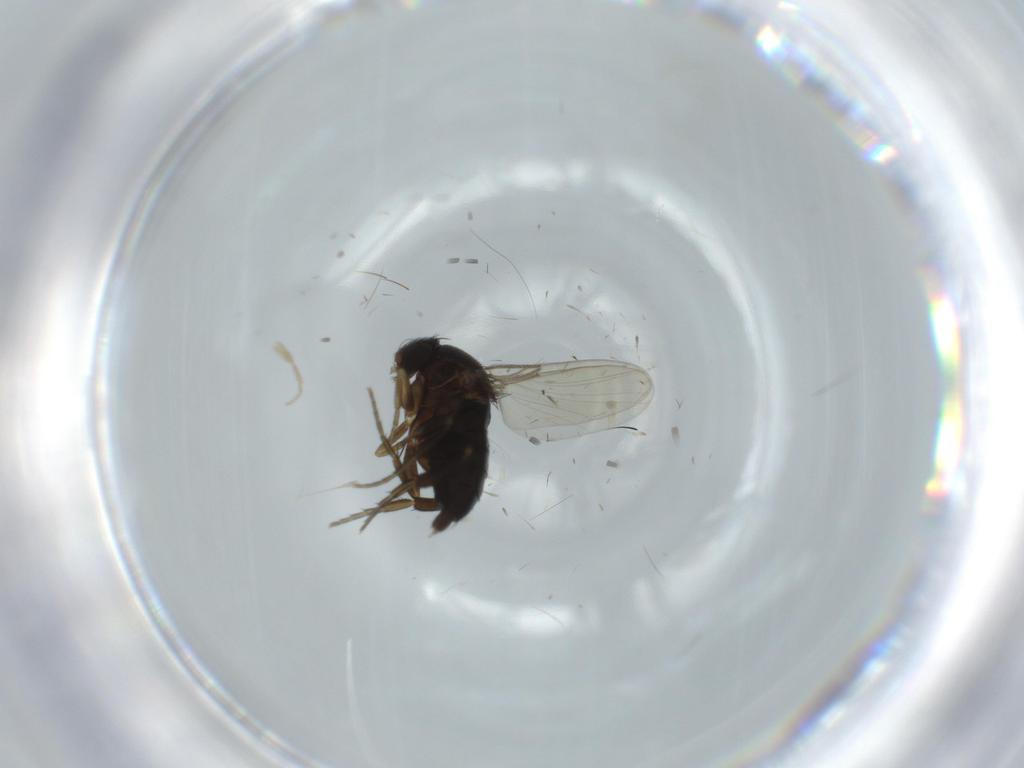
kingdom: Animalia
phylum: Arthropoda
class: Insecta
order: Diptera
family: Phoridae
